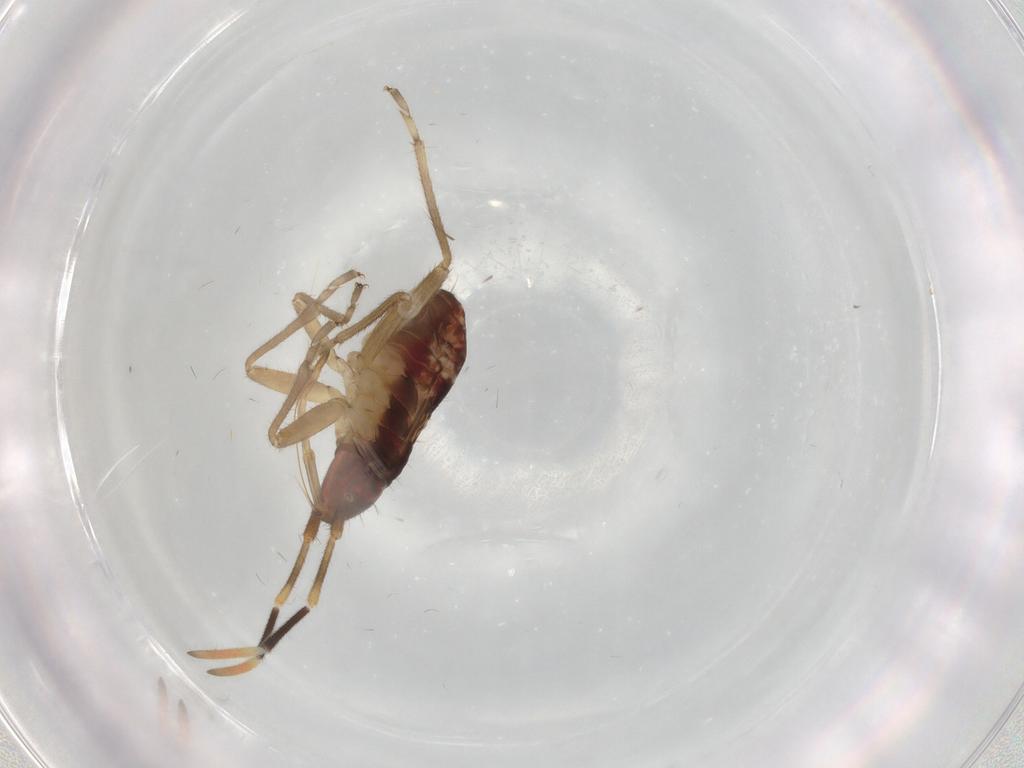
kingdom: Animalia
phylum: Arthropoda
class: Insecta
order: Hemiptera
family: Rhyparochromidae
